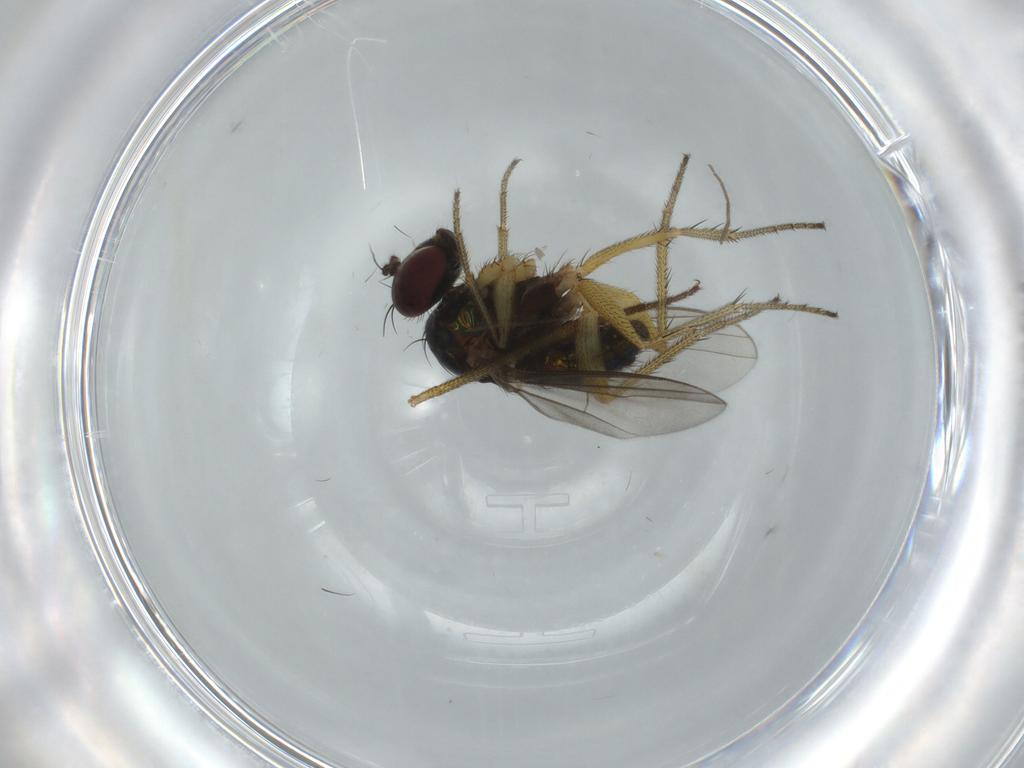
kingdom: Animalia
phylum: Arthropoda
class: Insecta
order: Diptera
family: Dolichopodidae
